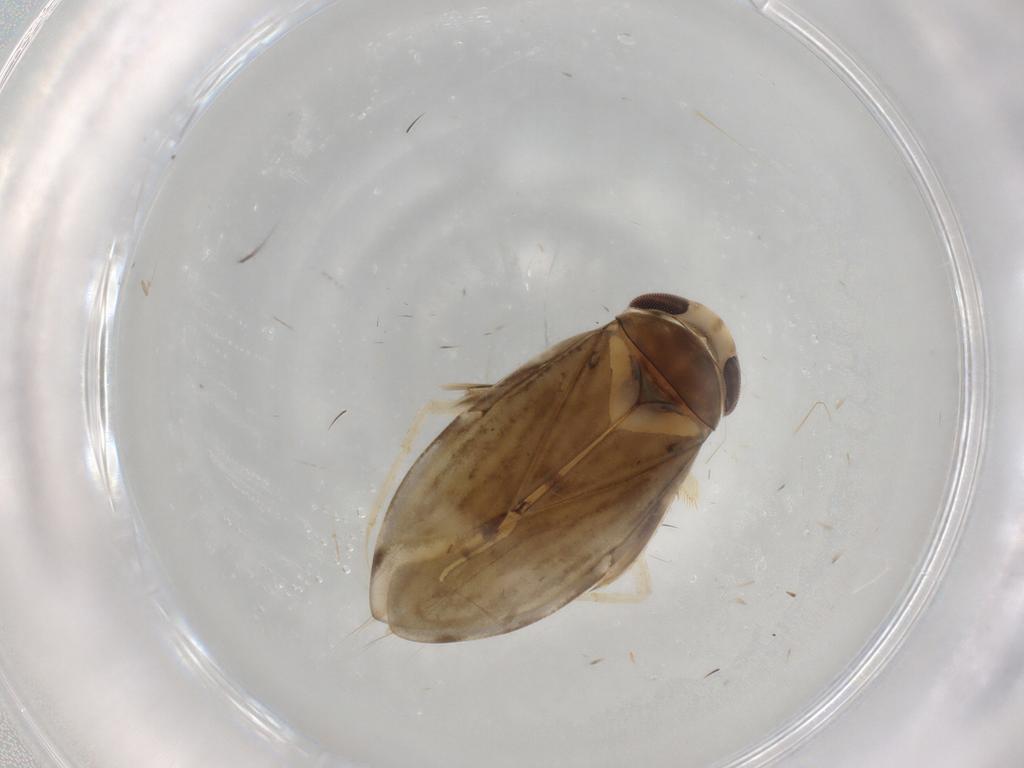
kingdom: Animalia
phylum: Arthropoda
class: Insecta
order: Hemiptera
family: Corixidae
